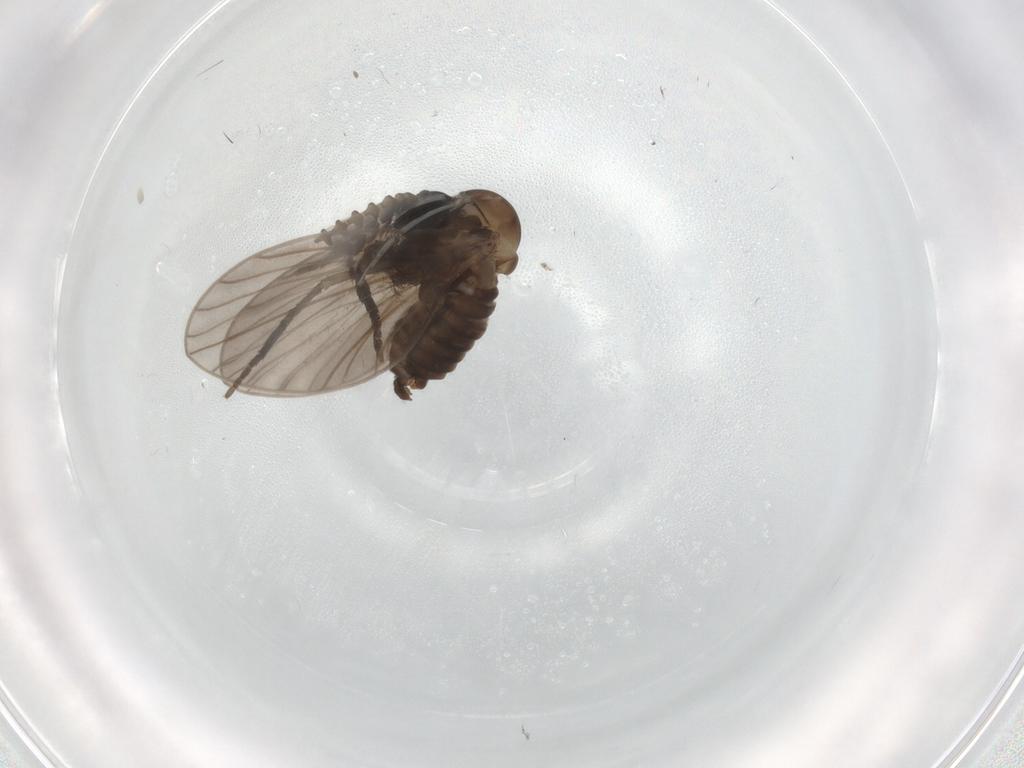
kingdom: Animalia
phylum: Arthropoda
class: Insecta
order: Diptera
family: Psychodidae
